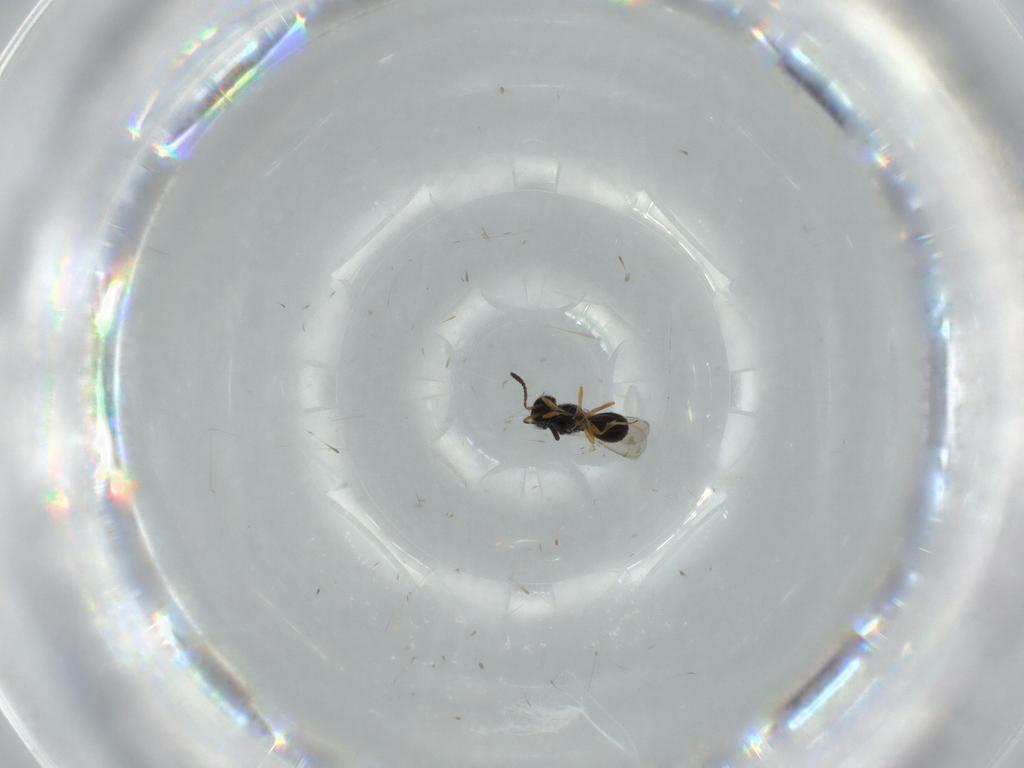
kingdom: Animalia
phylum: Arthropoda
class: Insecta
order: Hymenoptera
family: Scelionidae
